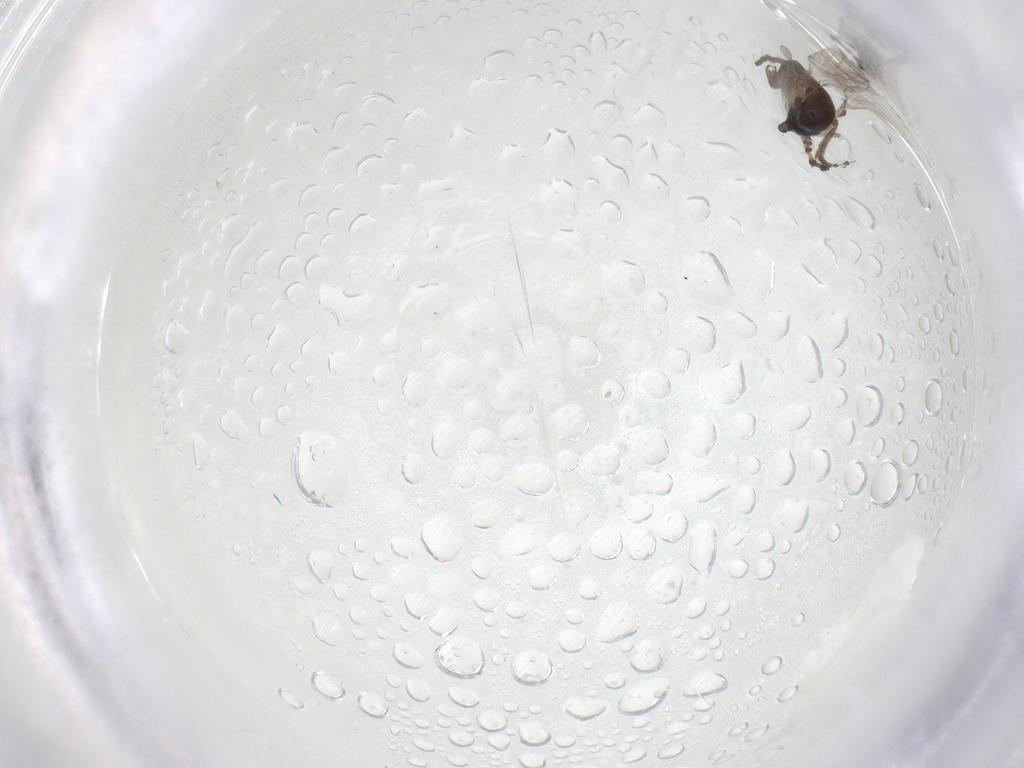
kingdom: Animalia
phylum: Arthropoda
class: Insecta
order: Diptera
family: Psychodidae
